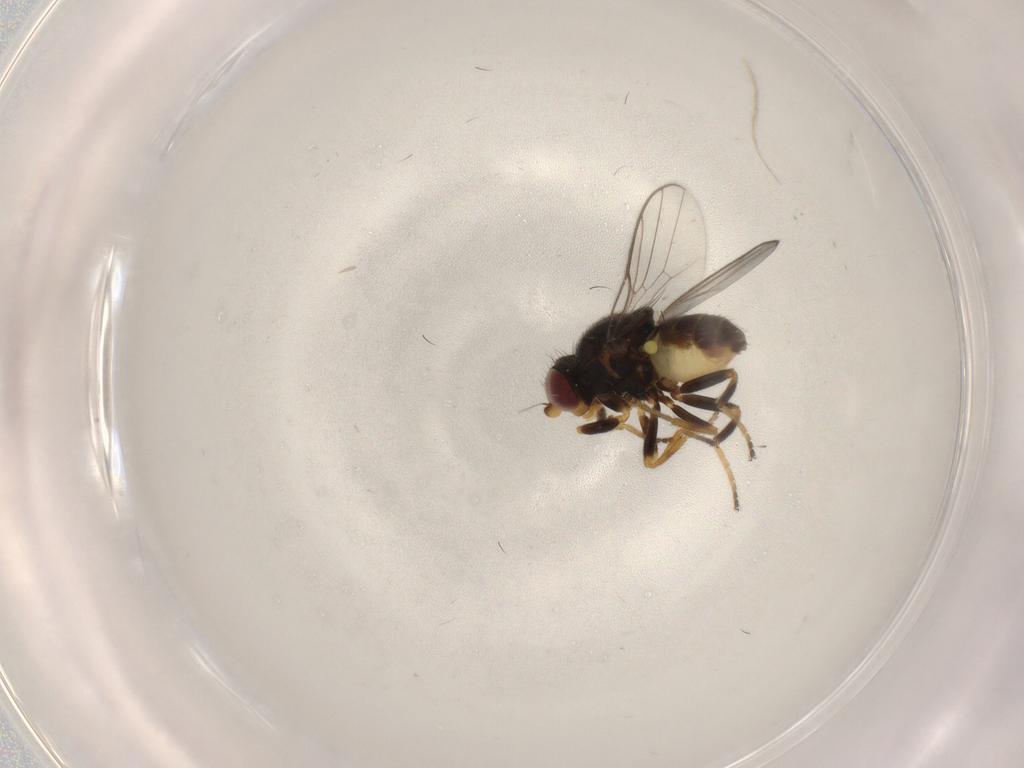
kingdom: Animalia
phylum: Arthropoda
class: Insecta
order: Diptera
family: Chloropidae
